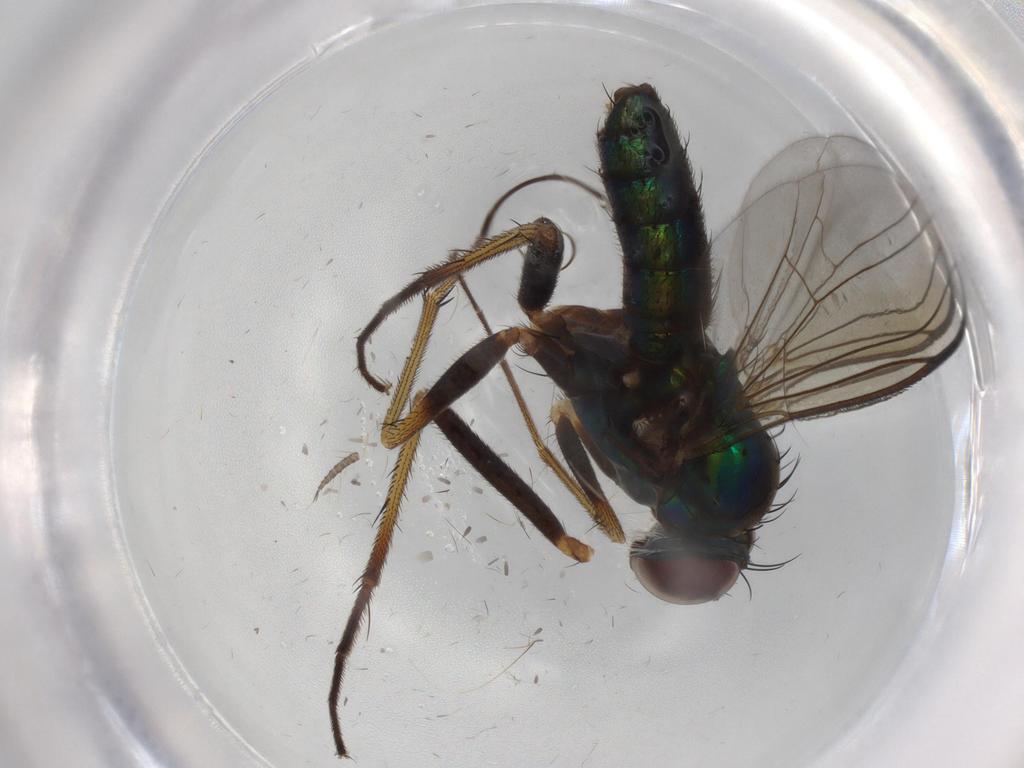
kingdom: Animalia
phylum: Arthropoda
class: Insecta
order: Diptera
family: Dolichopodidae
